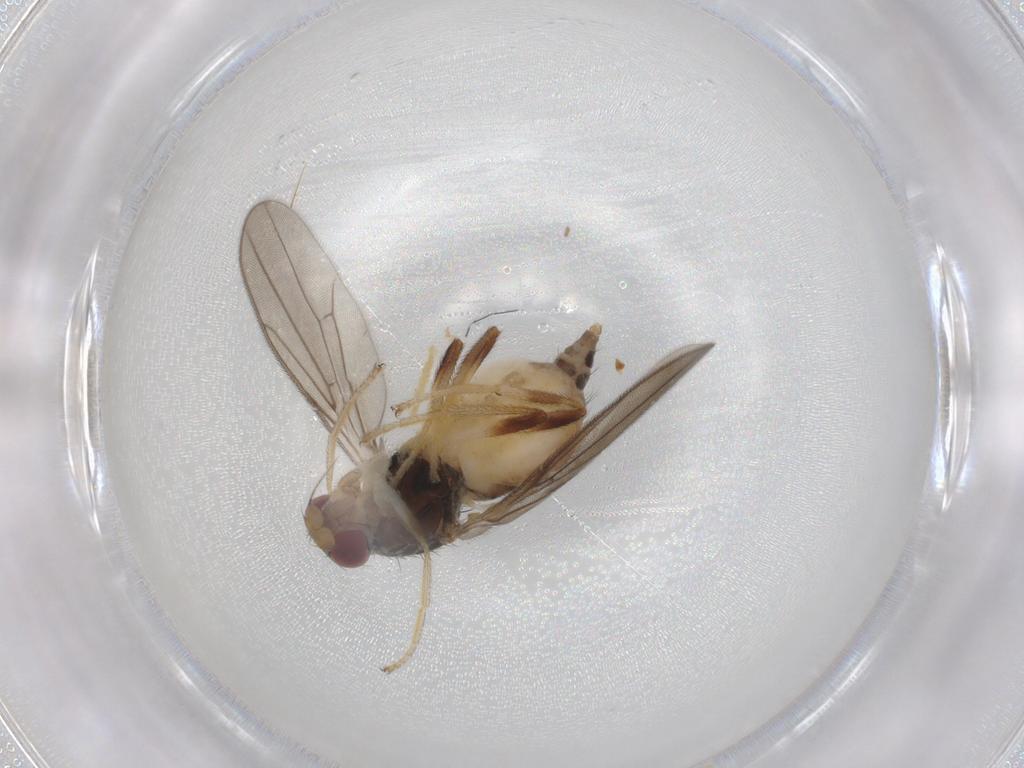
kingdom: Animalia
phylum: Arthropoda
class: Insecta
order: Diptera
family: Chloropidae
